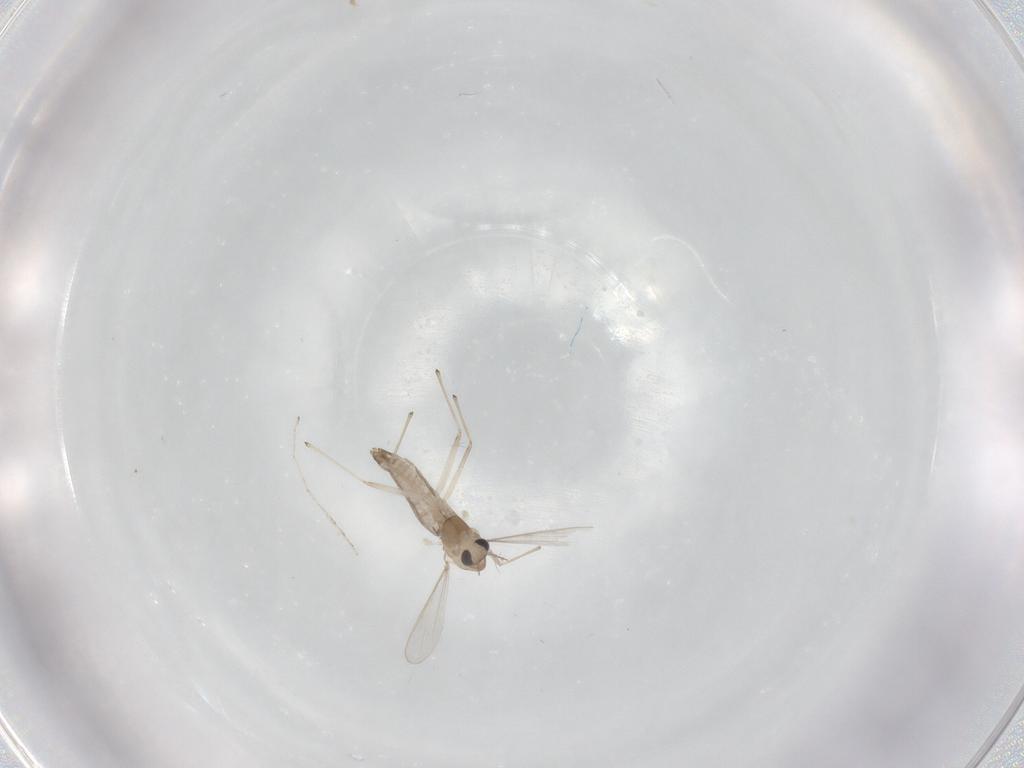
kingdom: Animalia
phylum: Arthropoda
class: Insecta
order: Diptera
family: Chironomidae
